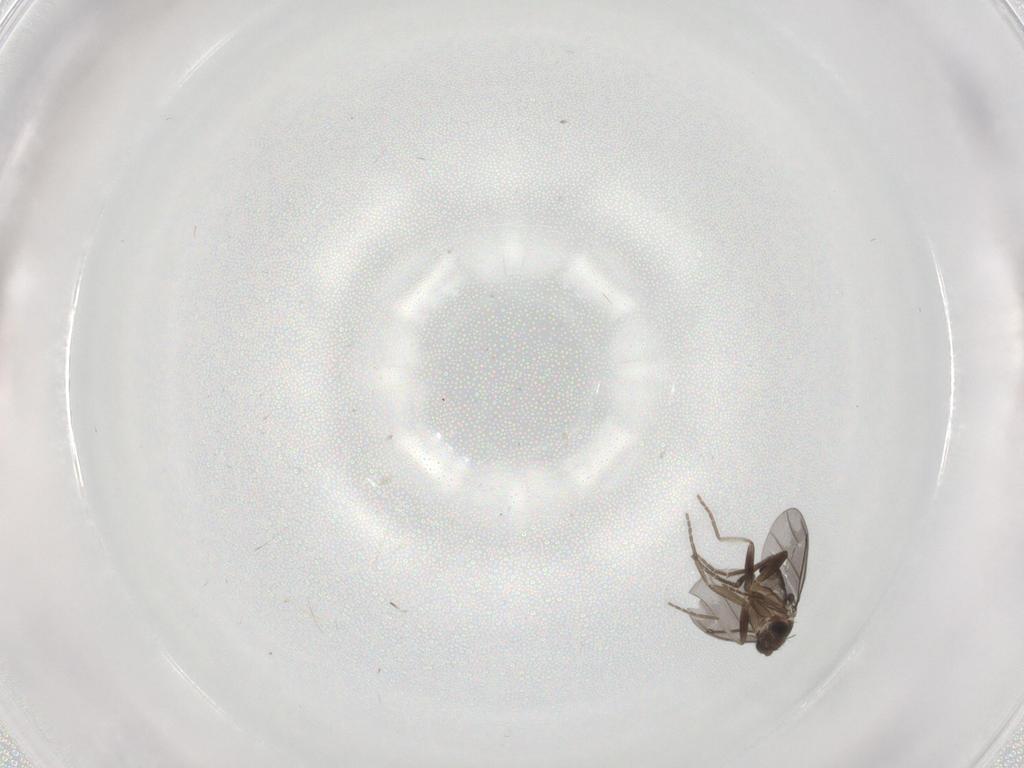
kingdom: Animalia
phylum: Arthropoda
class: Insecta
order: Diptera
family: Phoridae
